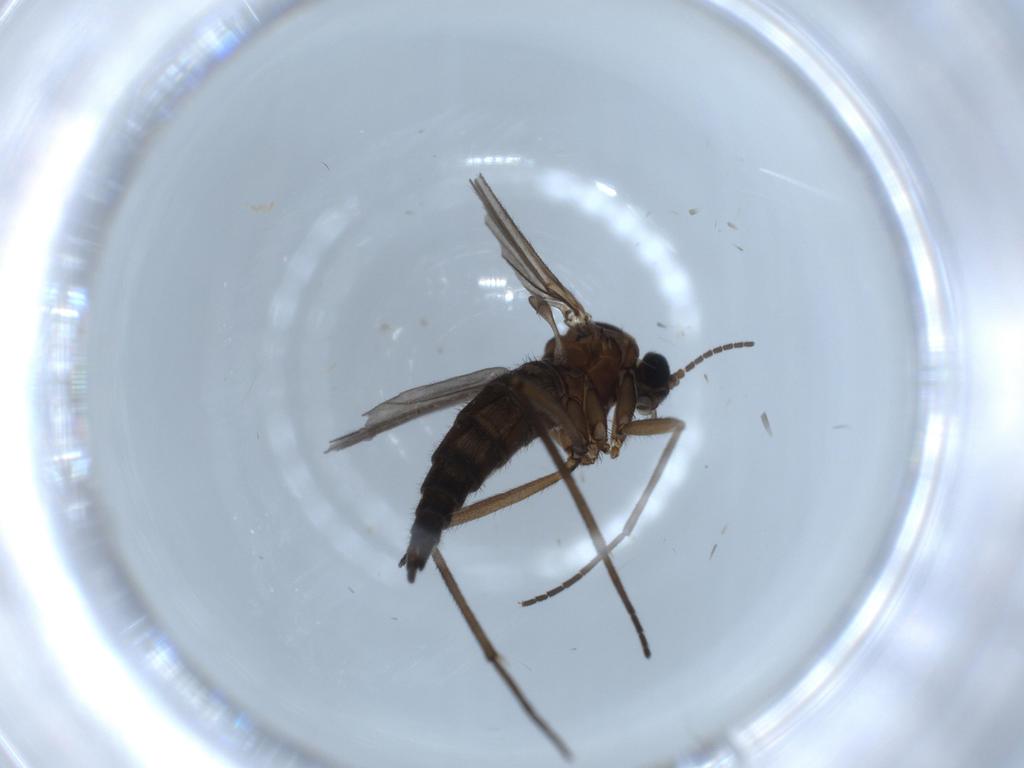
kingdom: Animalia
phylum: Arthropoda
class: Insecta
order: Diptera
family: Sciaridae
